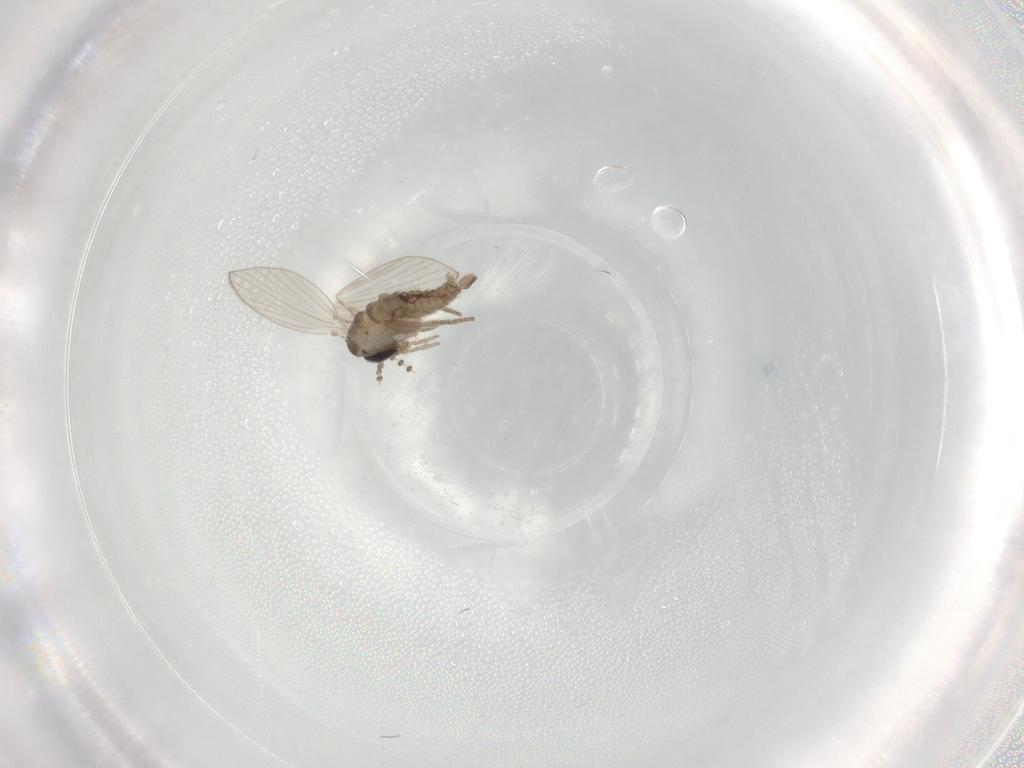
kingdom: Animalia
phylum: Arthropoda
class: Insecta
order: Diptera
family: Psychodidae
